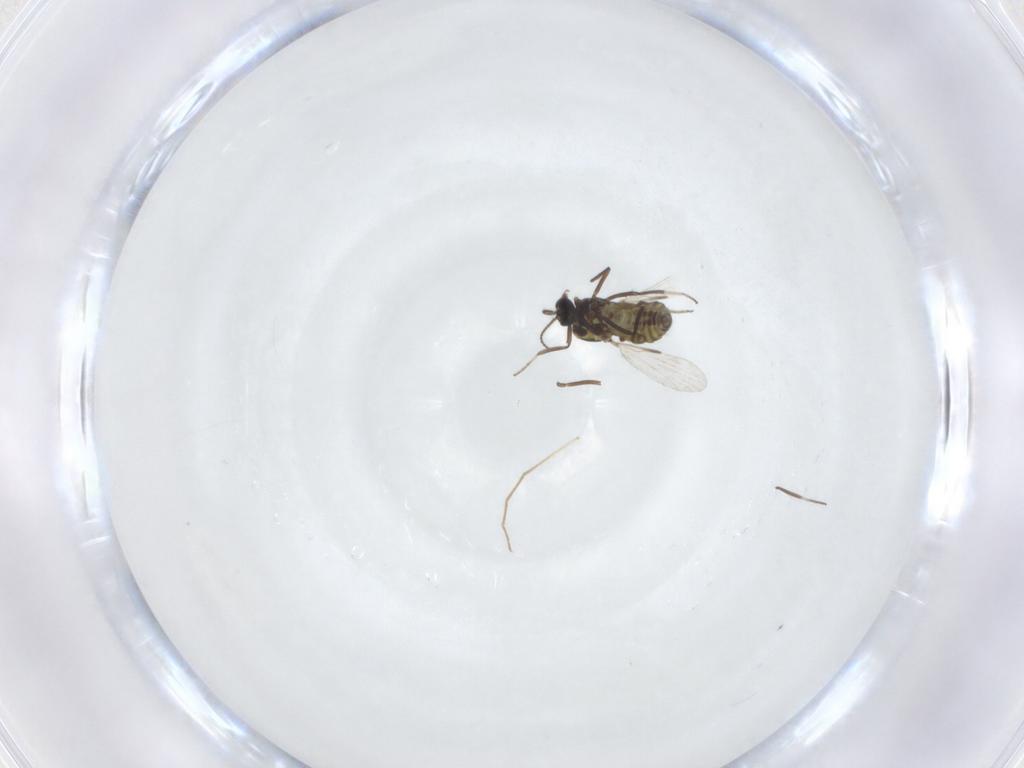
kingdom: Animalia
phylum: Arthropoda
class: Insecta
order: Diptera
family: Ceratopogonidae
